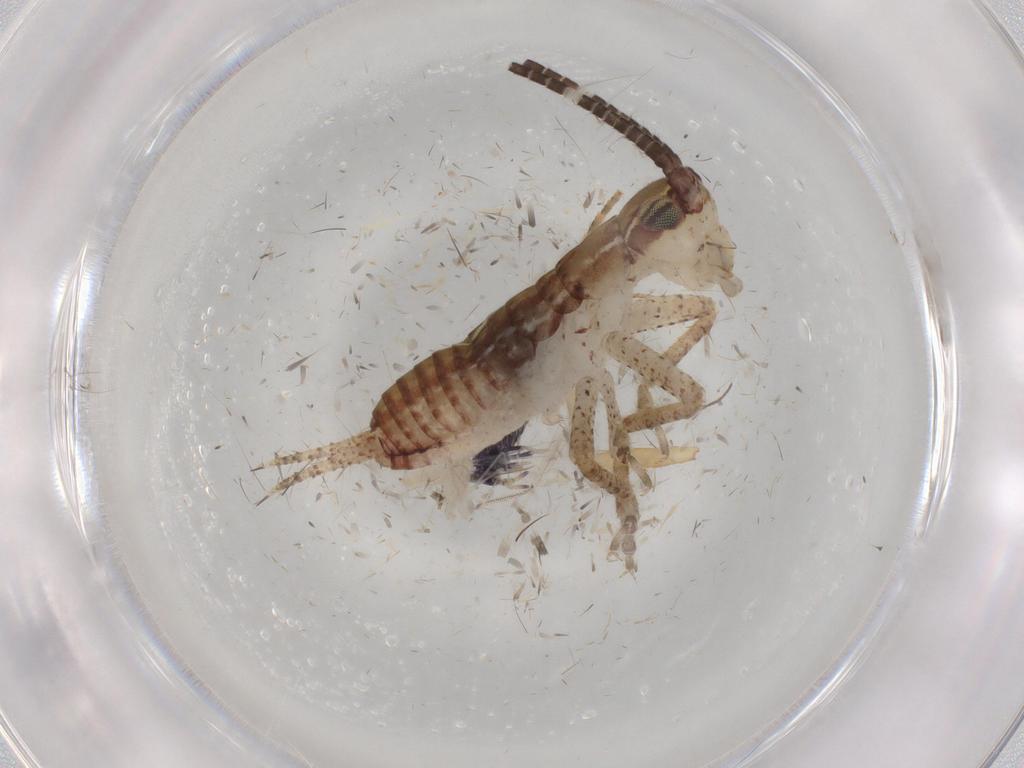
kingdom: Animalia
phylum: Arthropoda
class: Insecta
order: Orthoptera
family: Gryllidae
